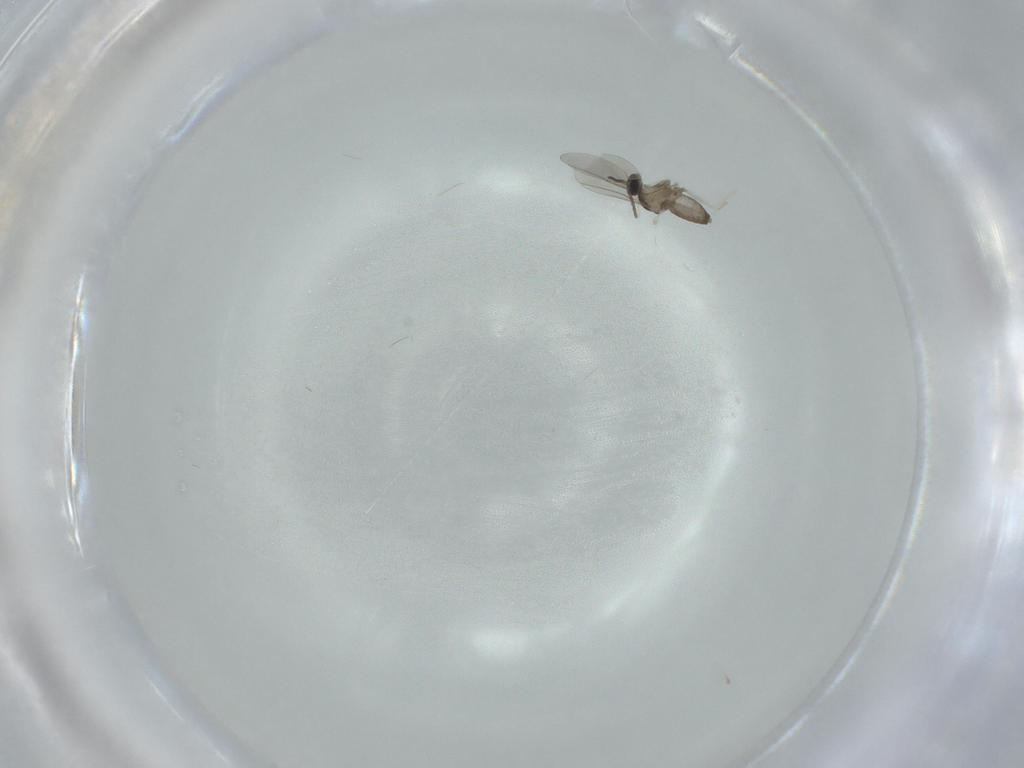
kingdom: Animalia
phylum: Arthropoda
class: Insecta
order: Diptera
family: Cecidomyiidae
